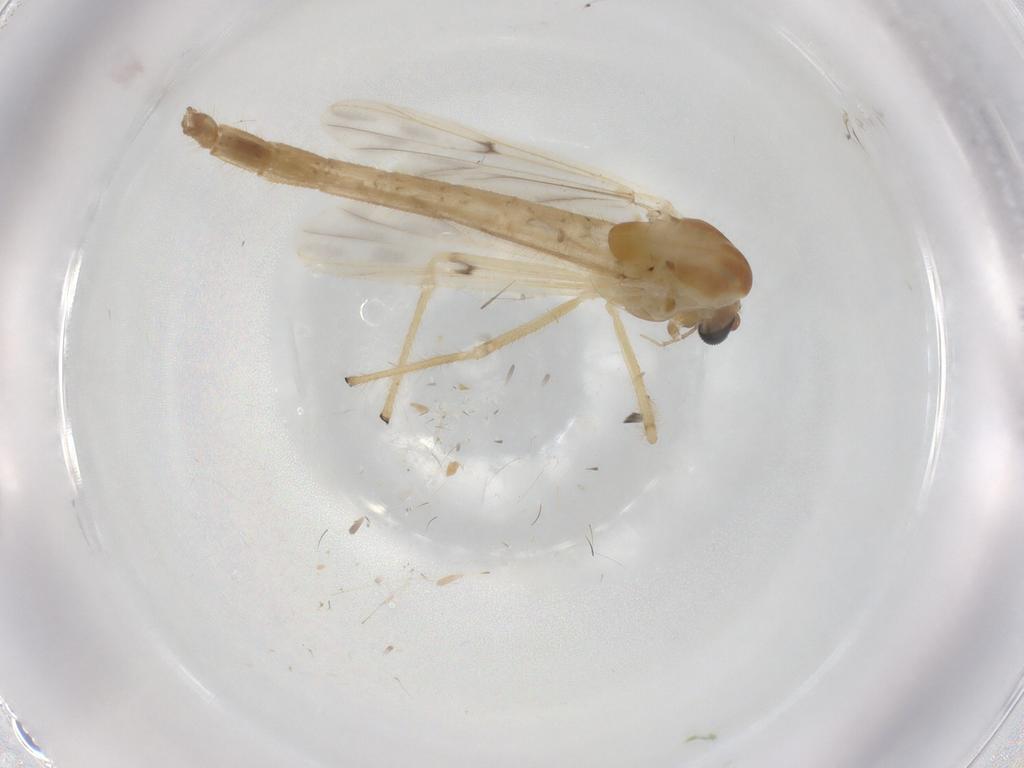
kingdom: Animalia
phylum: Arthropoda
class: Insecta
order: Diptera
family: Chironomidae
